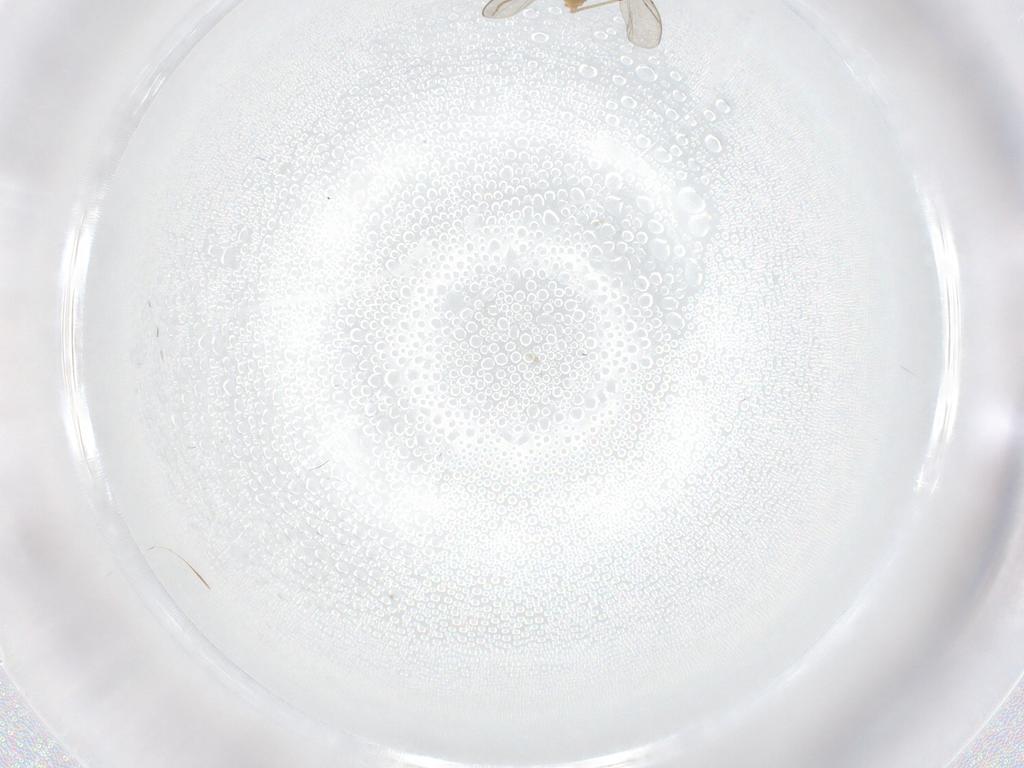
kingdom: Animalia
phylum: Arthropoda
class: Insecta
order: Diptera
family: Chironomidae
